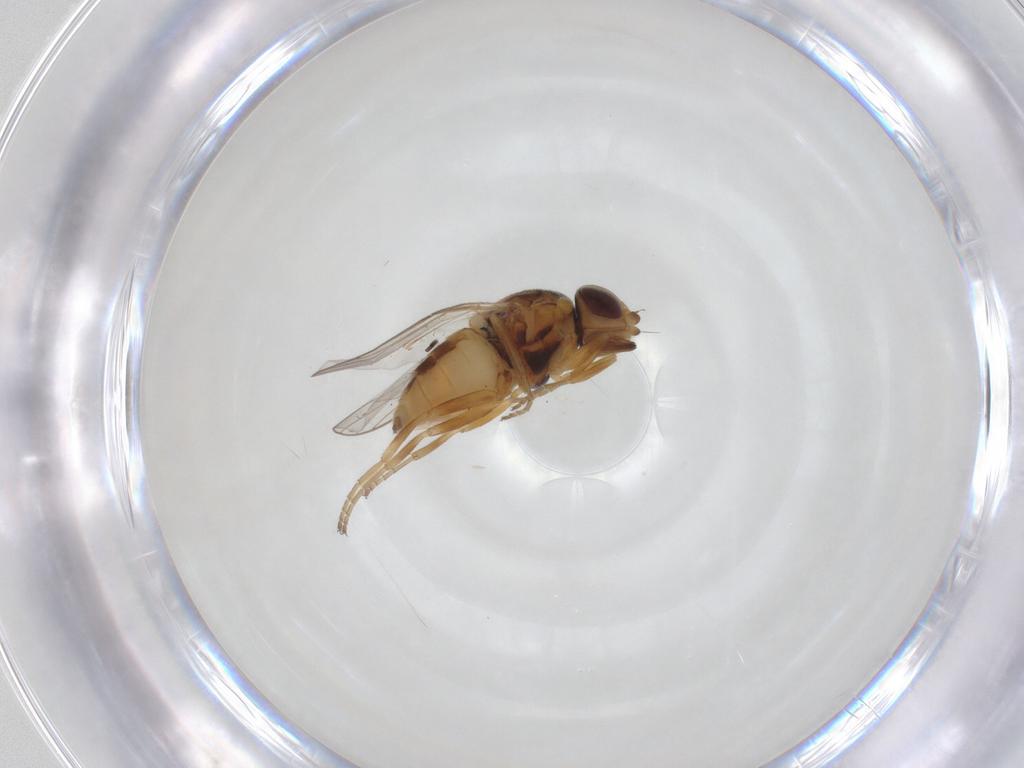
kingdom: Animalia
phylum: Arthropoda
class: Insecta
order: Diptera
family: Chloropidae
